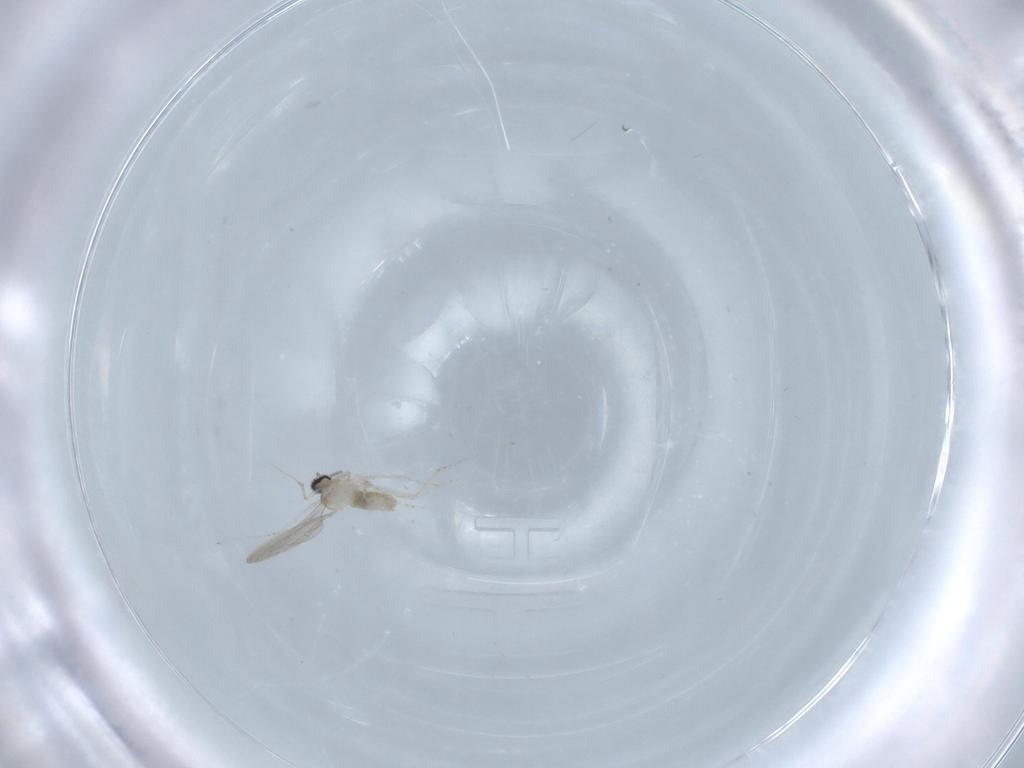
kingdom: Animalia
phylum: Arthropoda
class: Insecta
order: Diptera
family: Cecidomyiidae
